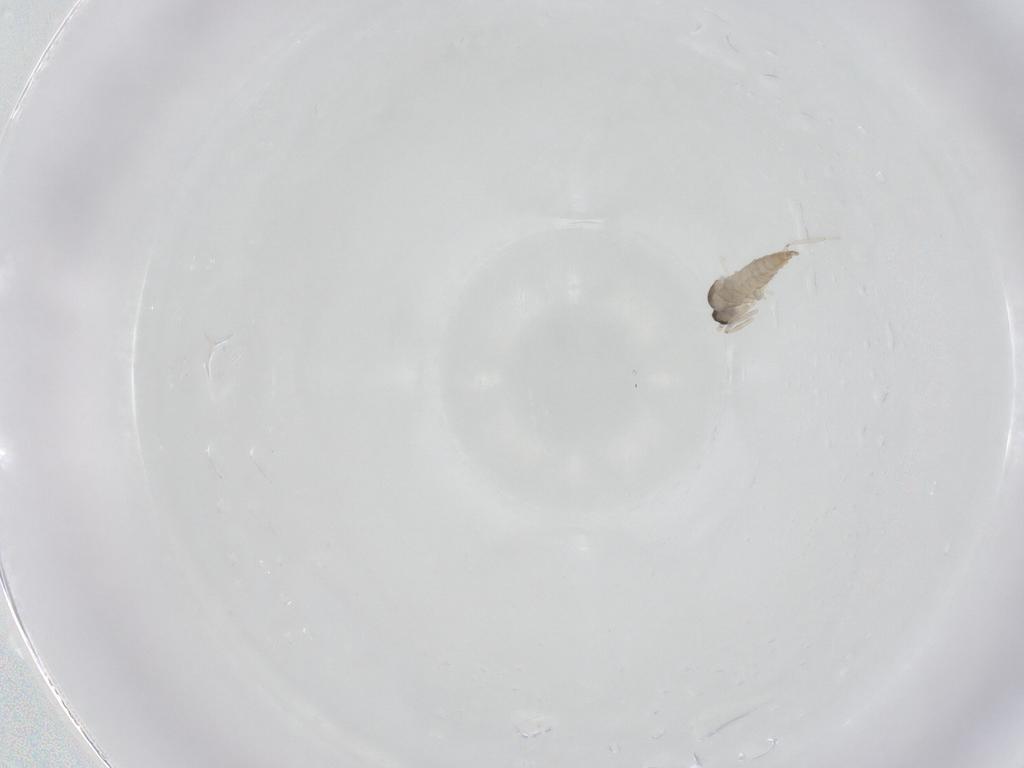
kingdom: Animalia
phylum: Arthropoda
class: Insecta
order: Diptera
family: Cecidomyiidae
